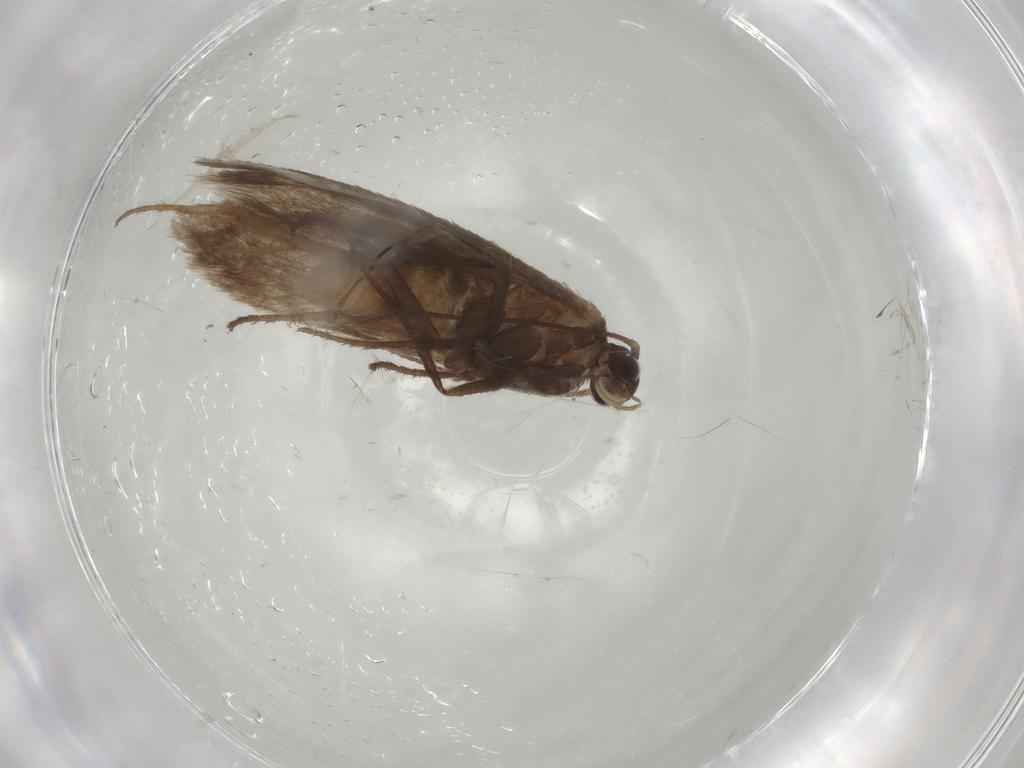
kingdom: Animalia
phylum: Arthropoda
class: Insecta
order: Lepidoptera
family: Limacodidae
